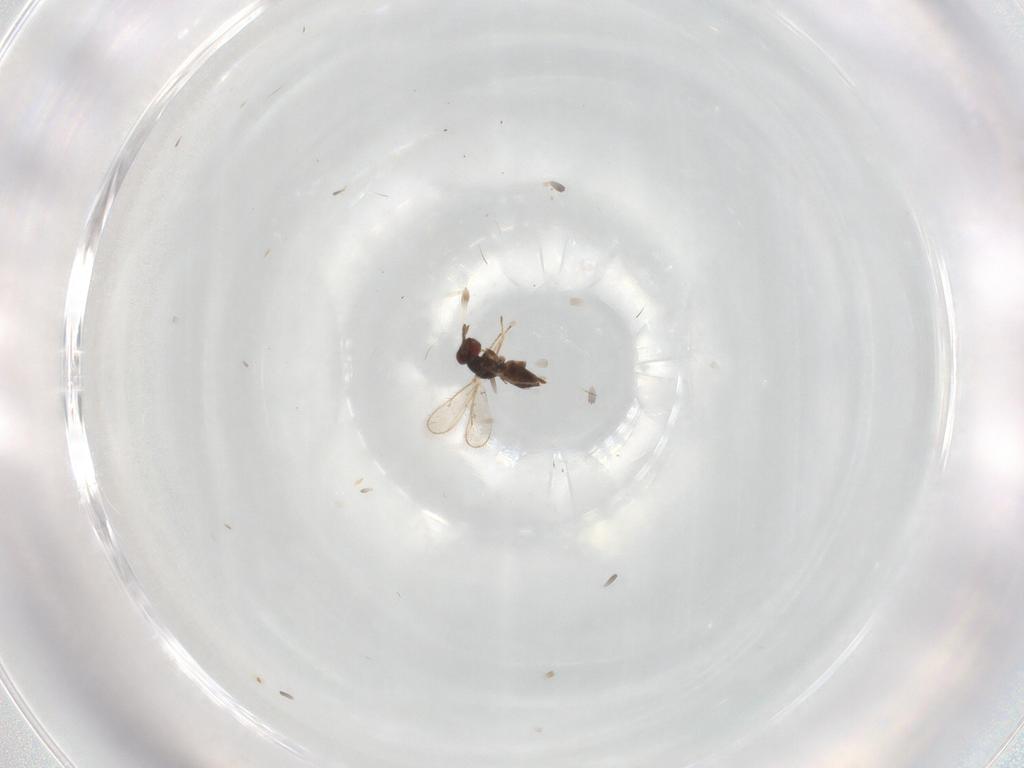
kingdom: Animalia
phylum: Arthropoda
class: Insecta
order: Hymenoptera
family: Eulophidae
